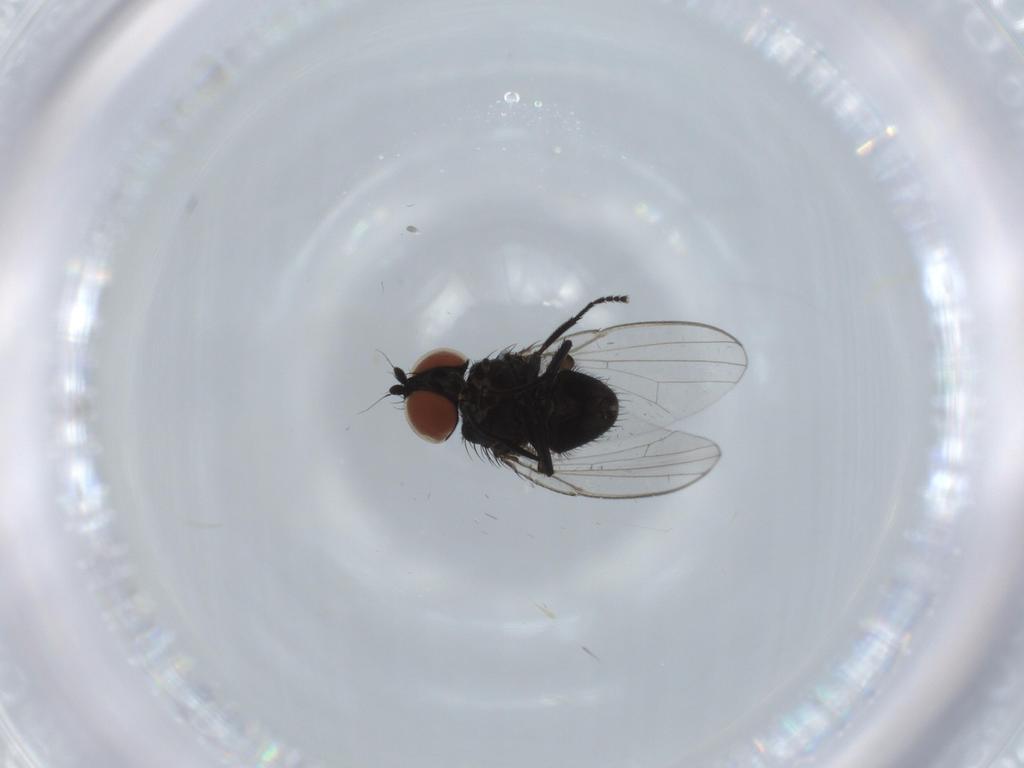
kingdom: Animalia
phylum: Arthropoda
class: Insecta
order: Diptera
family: Milichiidae
